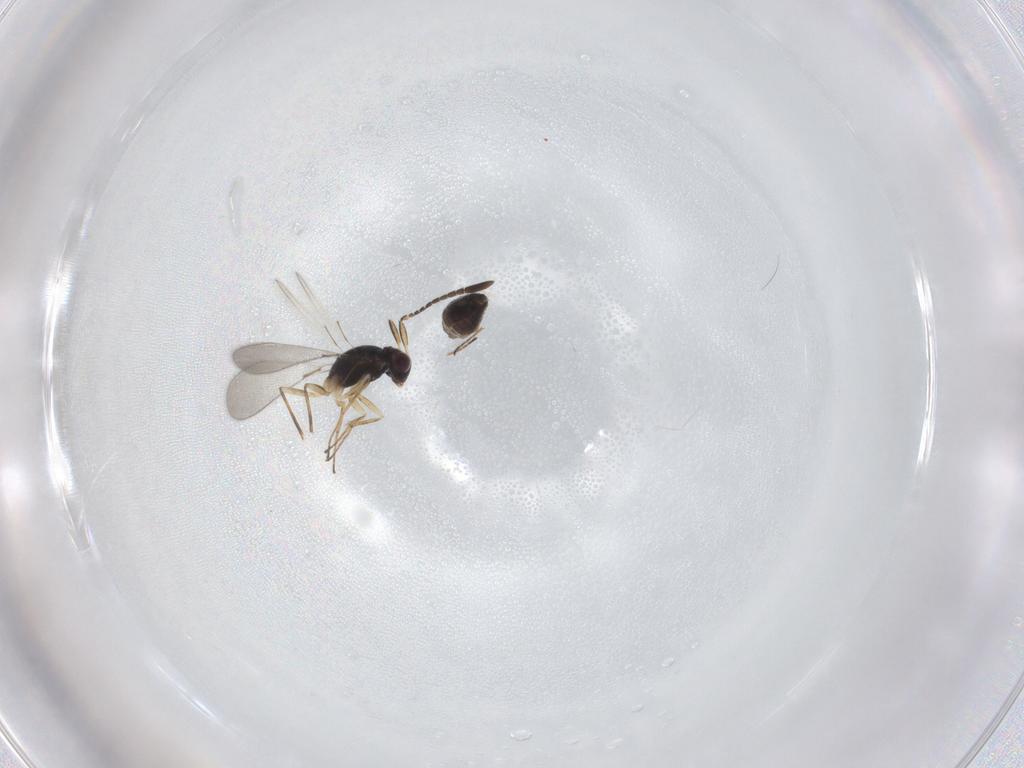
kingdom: Animalia
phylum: Arthropoda
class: Insecta
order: Hymenoptera
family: Mymaridae
